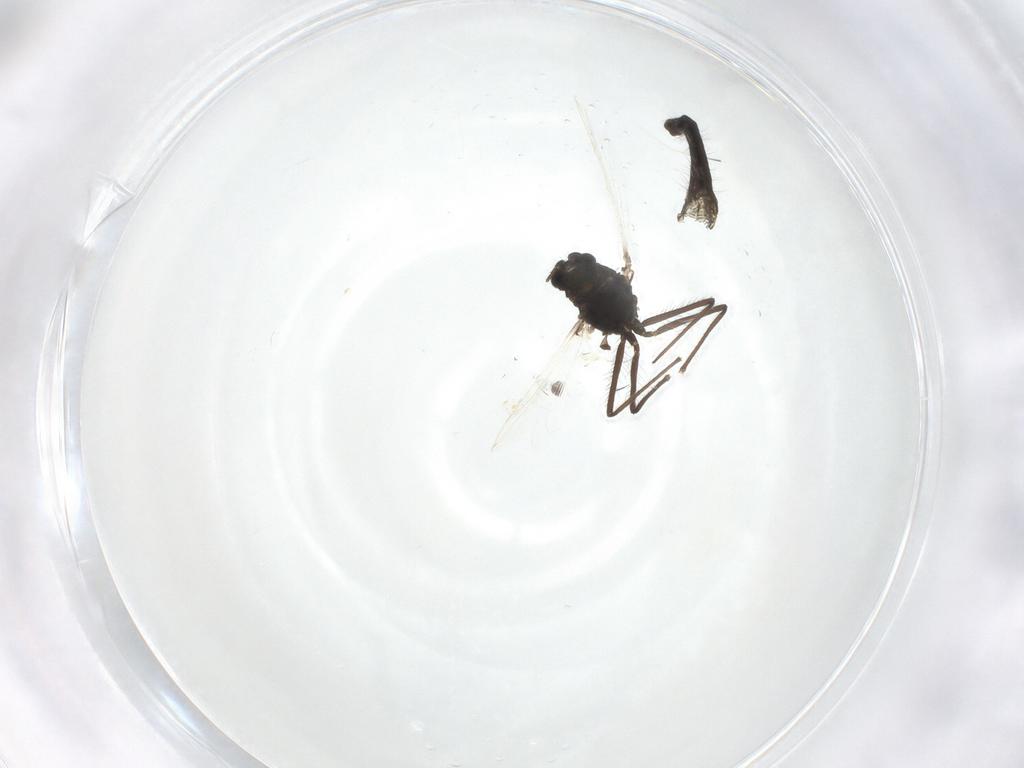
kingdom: Animalia
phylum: Arthropoda
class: Insecta
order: Diptera
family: Chironomidae
